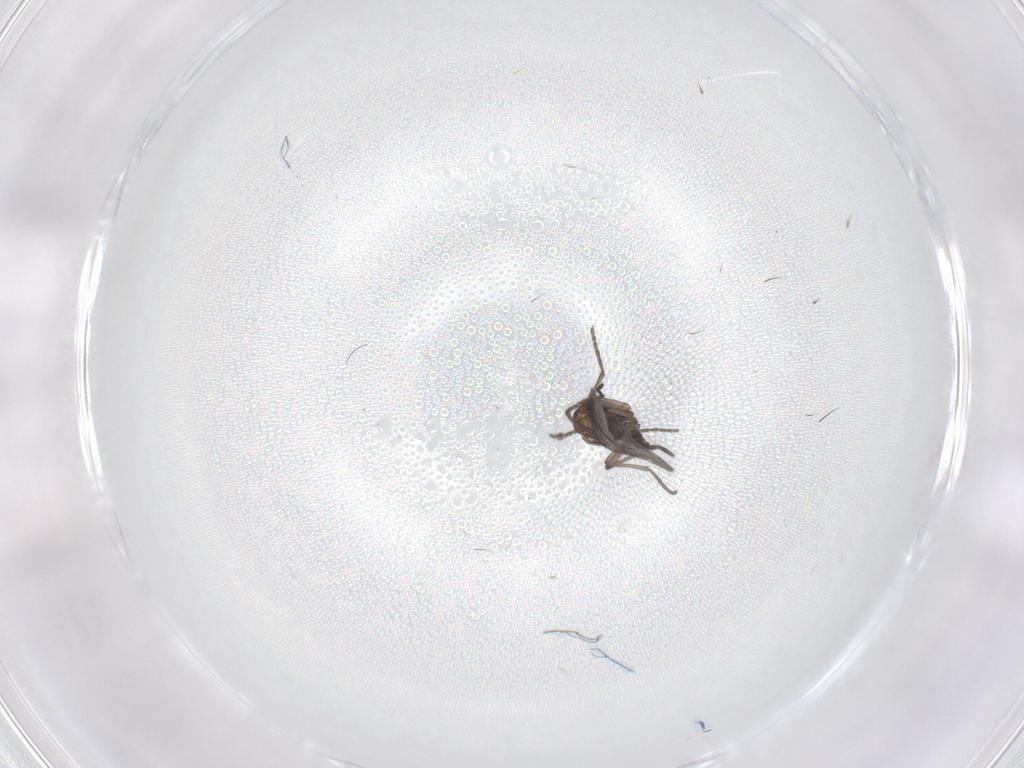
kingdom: Animalia
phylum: Arthropoda
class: Insecta
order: Diptera
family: Sciaridae
